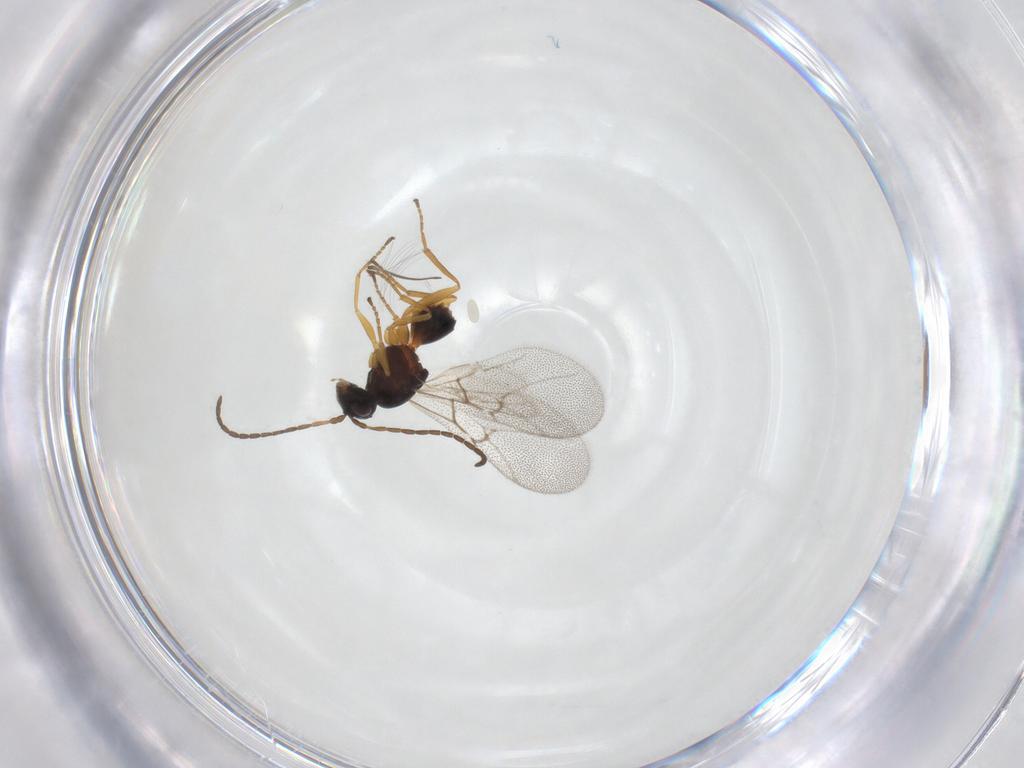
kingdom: Animalia
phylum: Arthropoda
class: Insecta
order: Hymenoptera
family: Cynipidae
